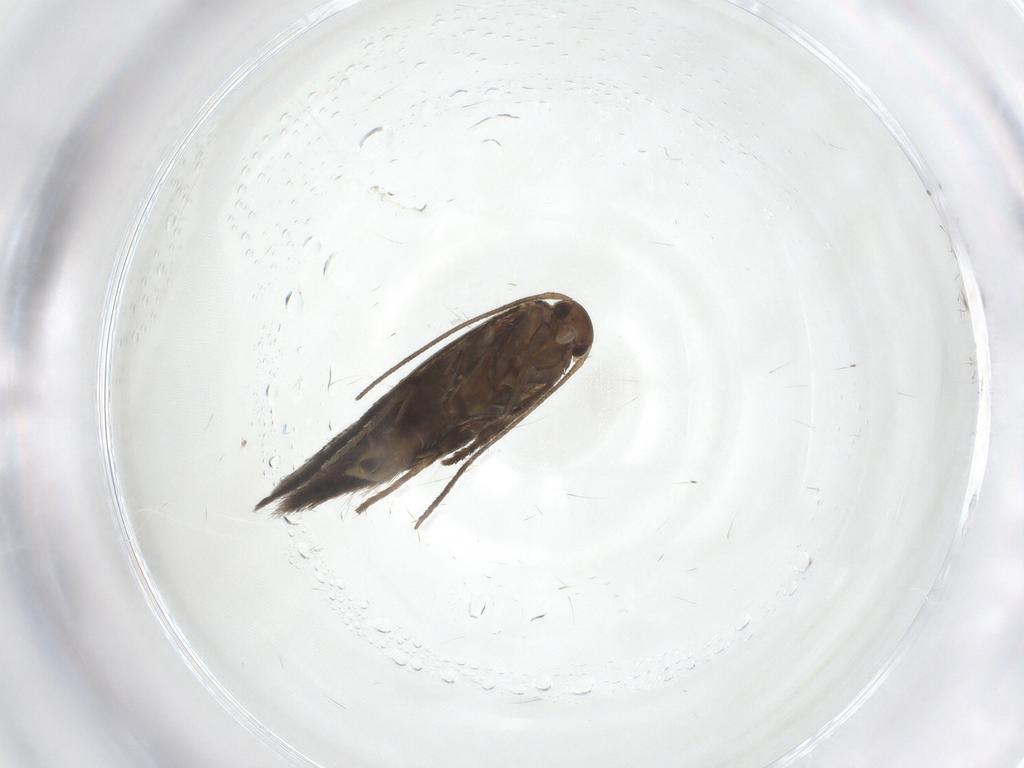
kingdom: Animalia
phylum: Arthropoda
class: Insecta
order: Lepidoptera
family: Elachistidae
